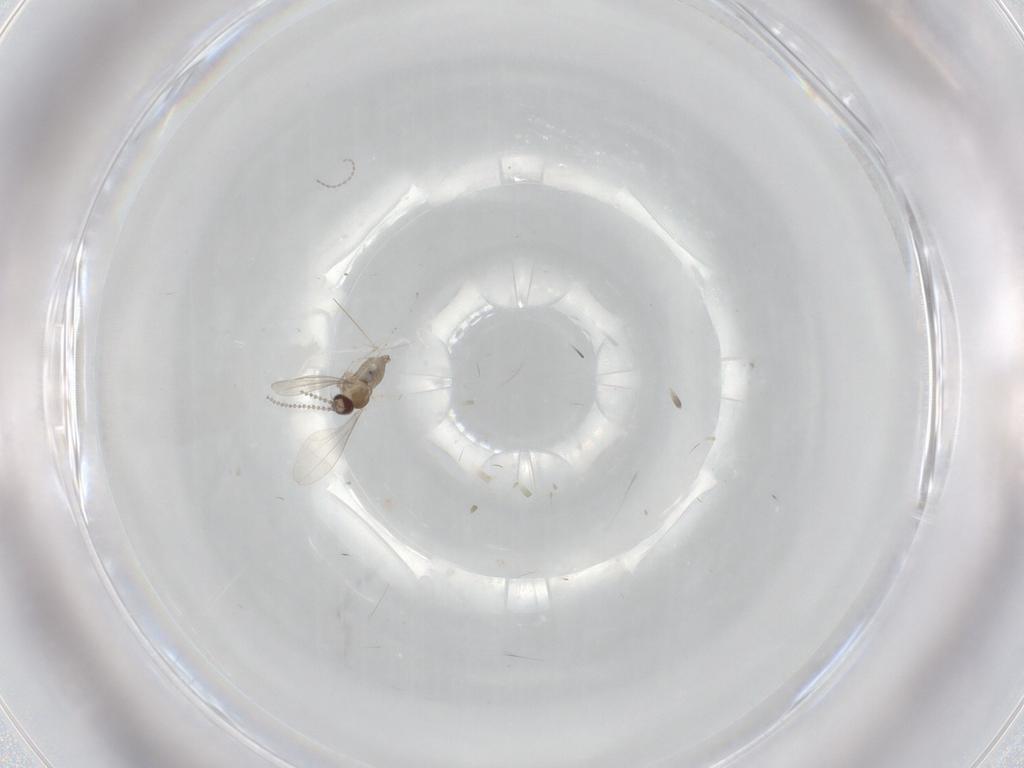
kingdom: Animalia
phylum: Arthropoda
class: Insecta
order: Diptera
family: Cecidomyiidae
